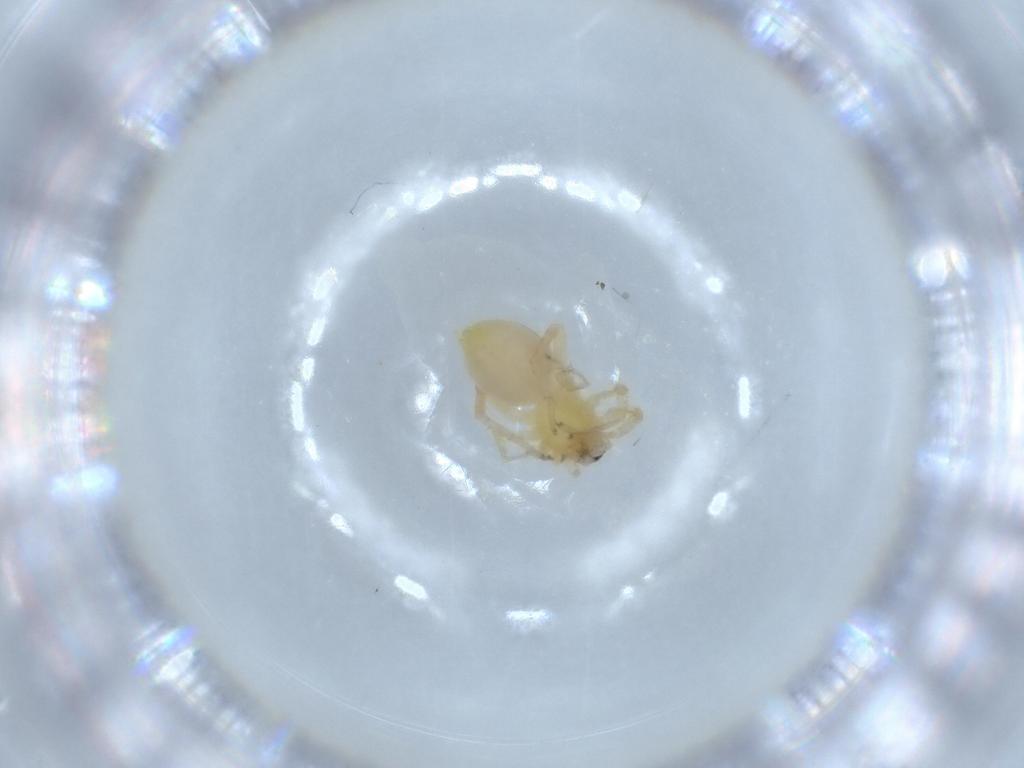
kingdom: Animalia
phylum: Arthropoda
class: Arachnida
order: Araneae
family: Anyphaenidae
